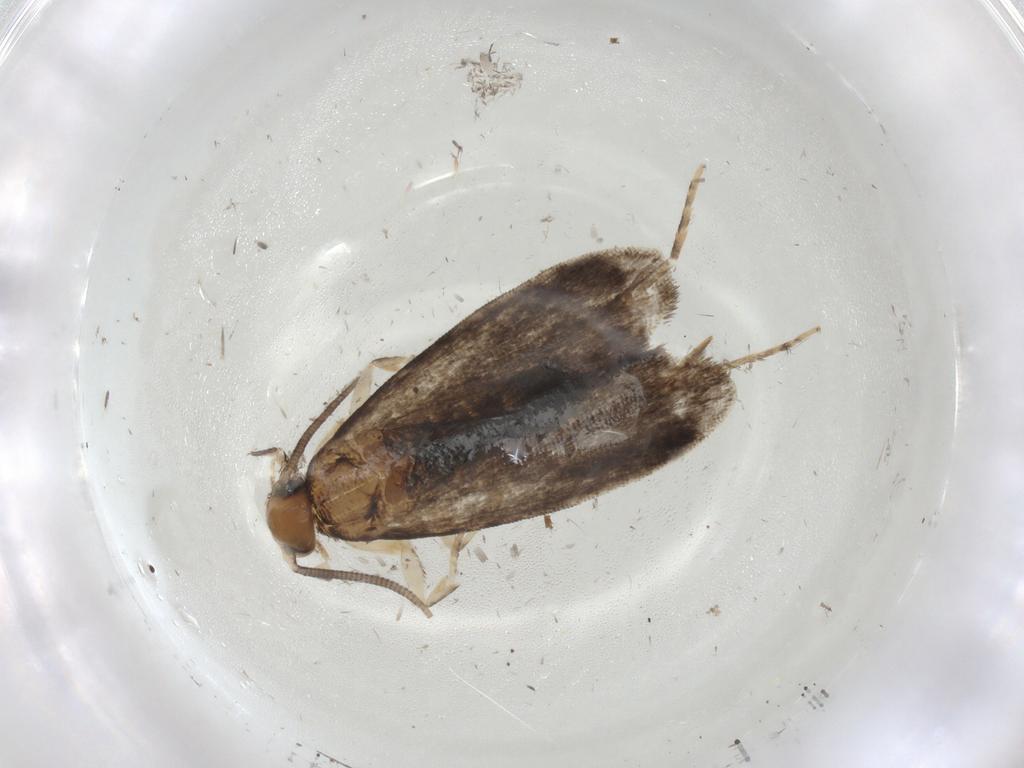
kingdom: Animalia
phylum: Arthropoda
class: Insecta
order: Lepidoptera
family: Dryadaulidae
